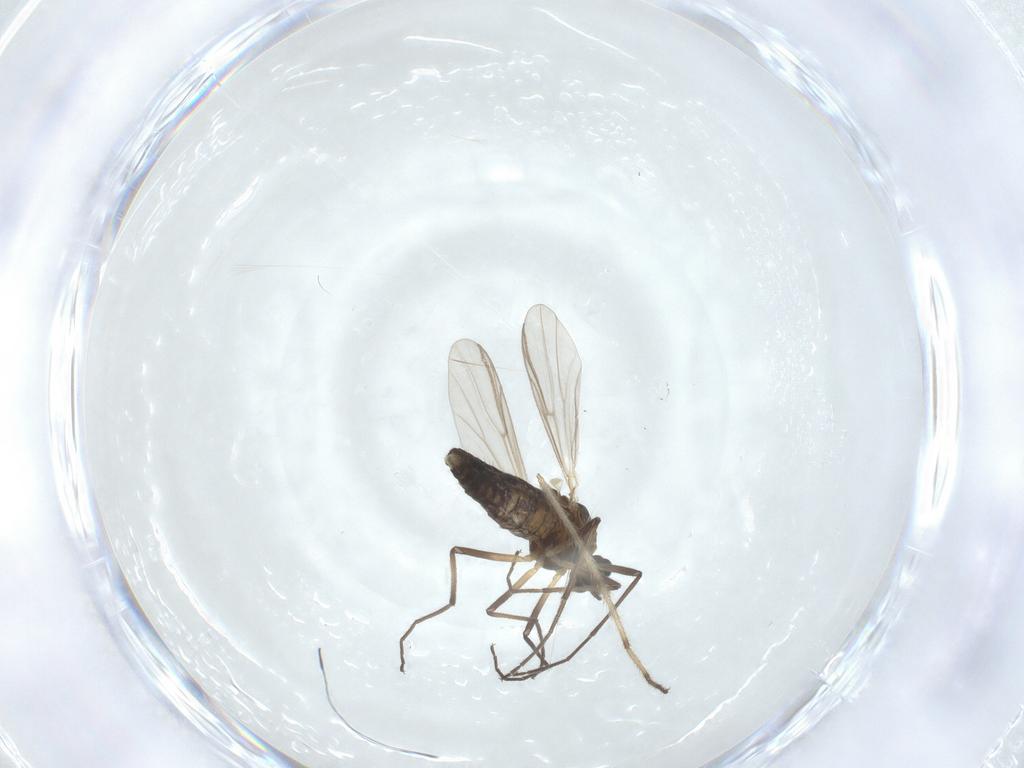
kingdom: Animalia
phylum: Arthropoda
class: Insecta
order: Diptera
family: Chironomidae
